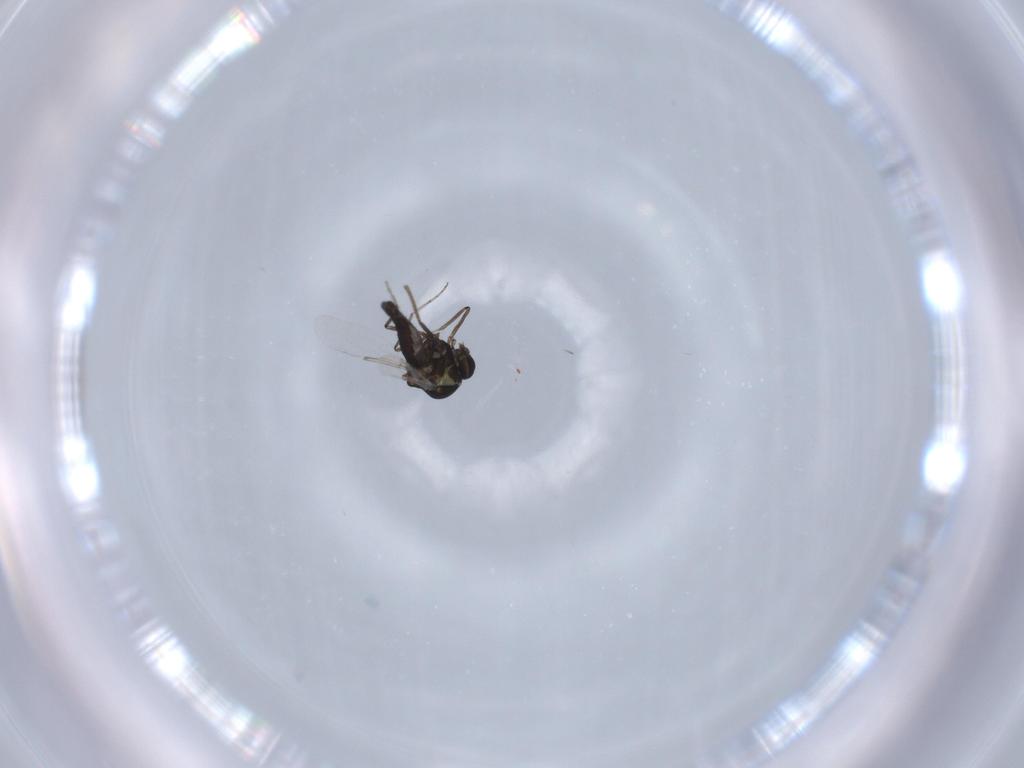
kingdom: Animalia
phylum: Arthropoda
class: Insecta
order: Diptera
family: Ceratopogonidae
